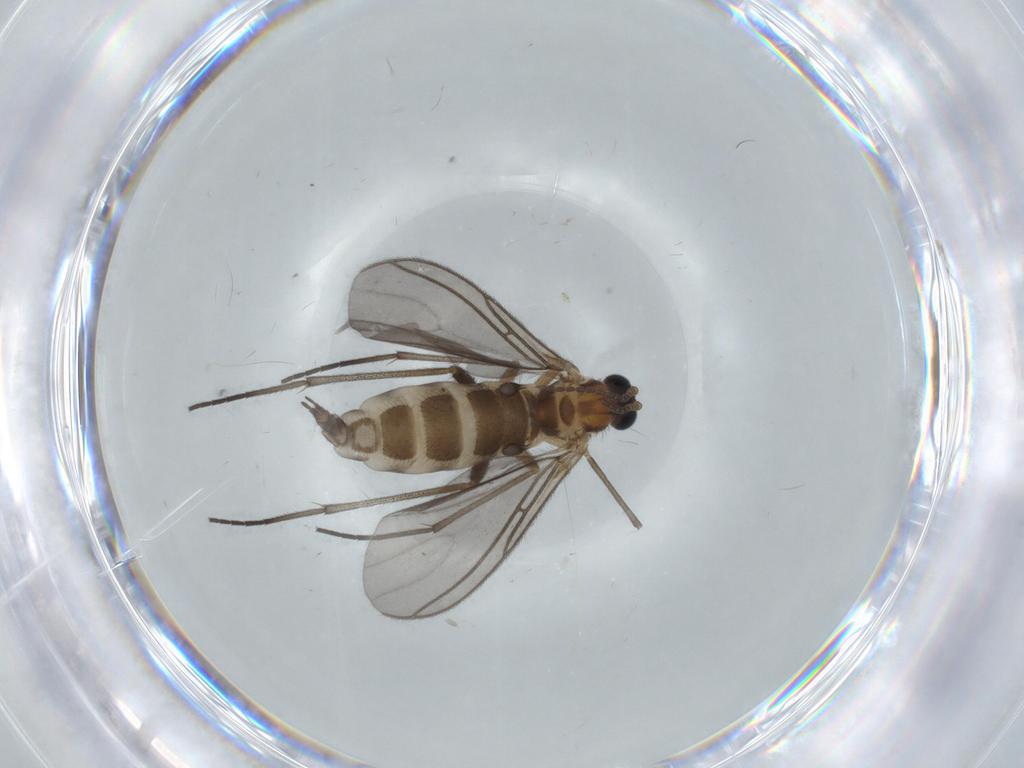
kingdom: Animalia
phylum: Arthropoda
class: Insecta
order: Diptera
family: Sciaridae
